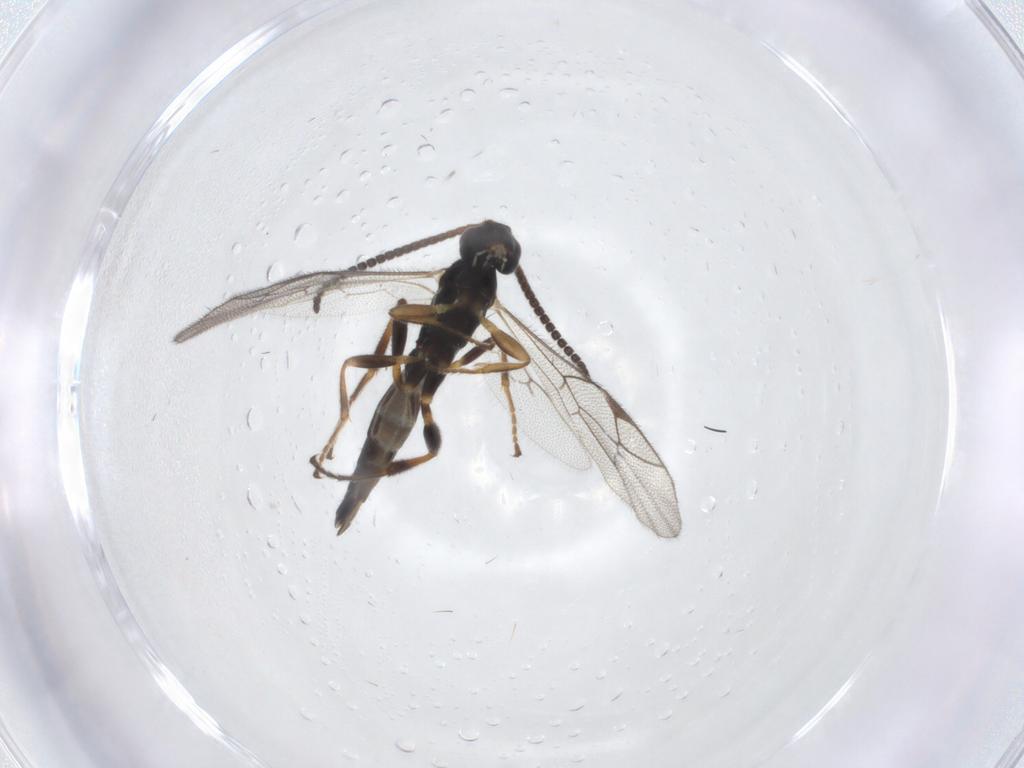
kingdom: Animalia
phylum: Arthropoda
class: Insecta
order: Hymenoptera
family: Ichneumonidae
